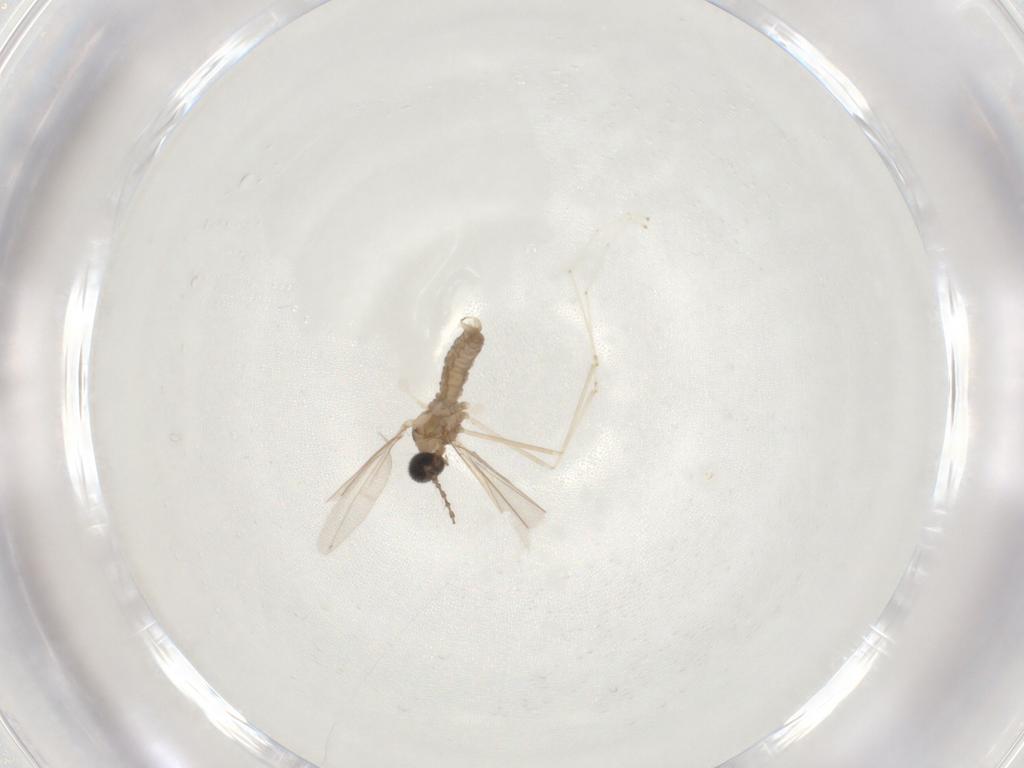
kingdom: Animalia
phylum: Arthropoda
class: Insecta
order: Diptera
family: Cecidomyiidae
